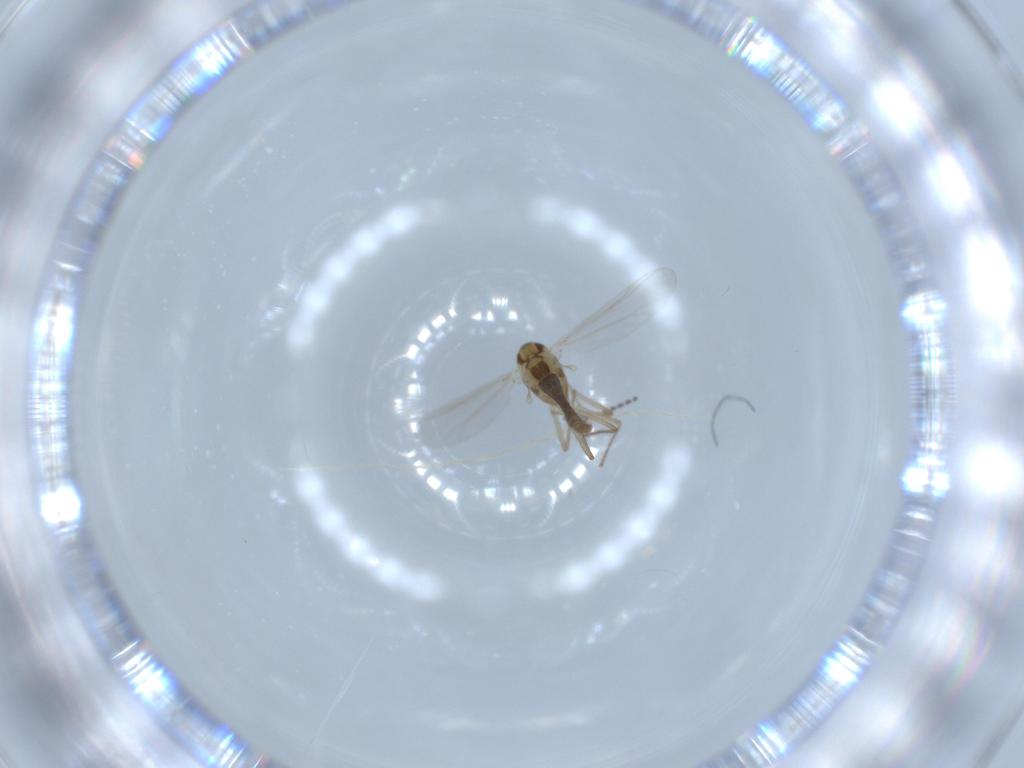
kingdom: Animalia
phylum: Arthropoda
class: Insecta
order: Diptera
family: Chironomidae
